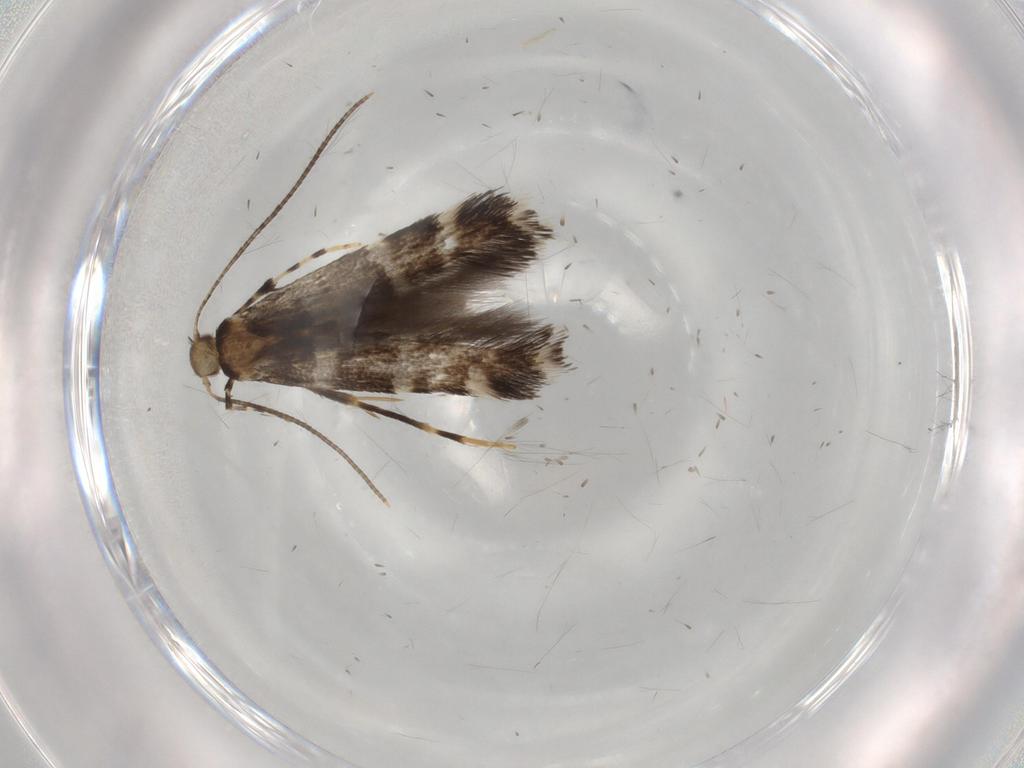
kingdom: Animalia
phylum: Arthropoda
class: Insecta
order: Lepidoptera
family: Gracillariidae
